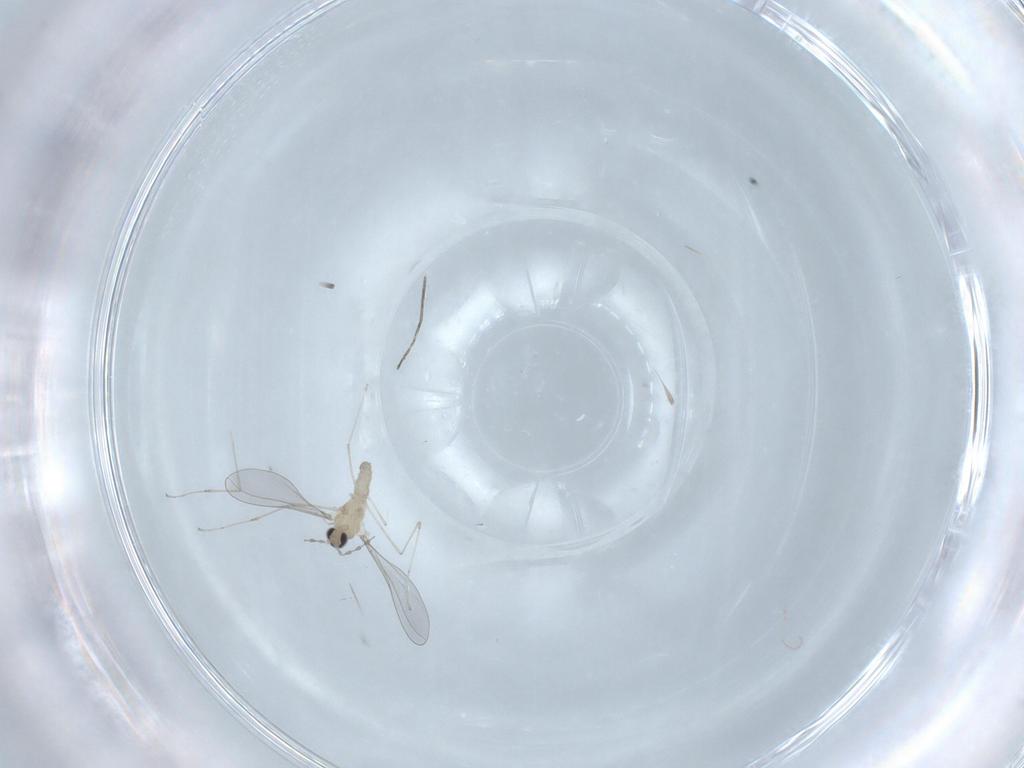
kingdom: Animalia
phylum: Arthropoda
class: Insecta
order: Diptera
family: Cecidomyiidae
